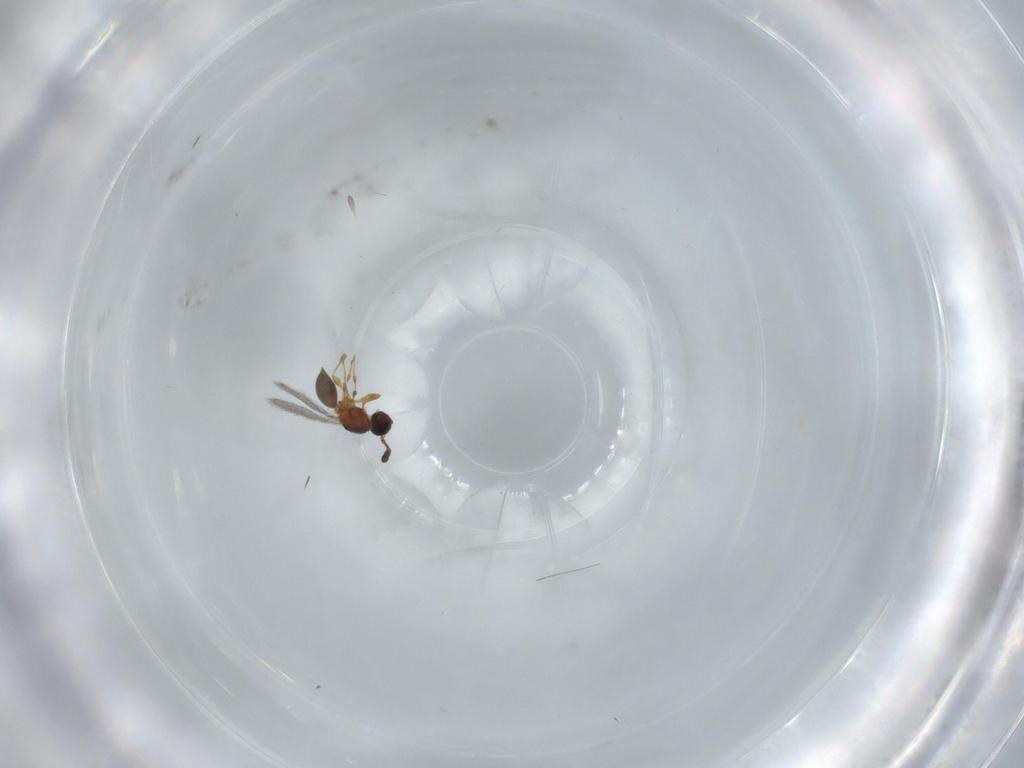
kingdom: Animalia
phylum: Arthropoda
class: Insecta
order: Hymenoptera
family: Diapriidae
